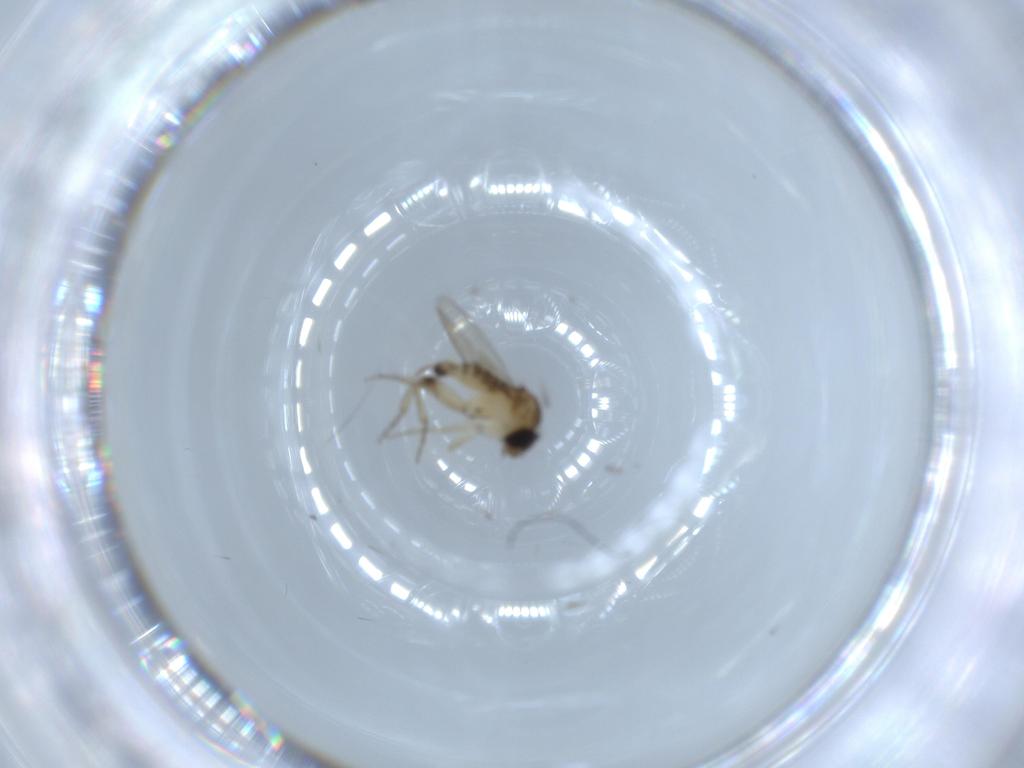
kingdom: Animalia
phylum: Arthropoda
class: Insecta
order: Diptera
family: Phoridae
